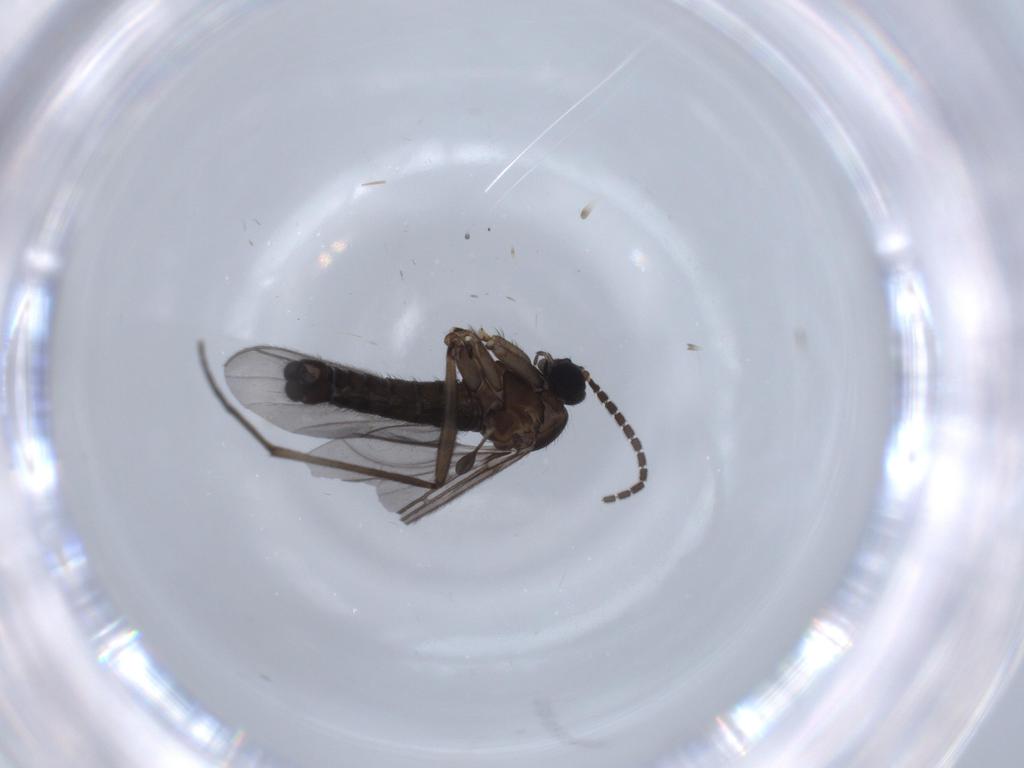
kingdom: Animalia
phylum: Arthropoda
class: Insecta
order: Diptera
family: Sciaridae
